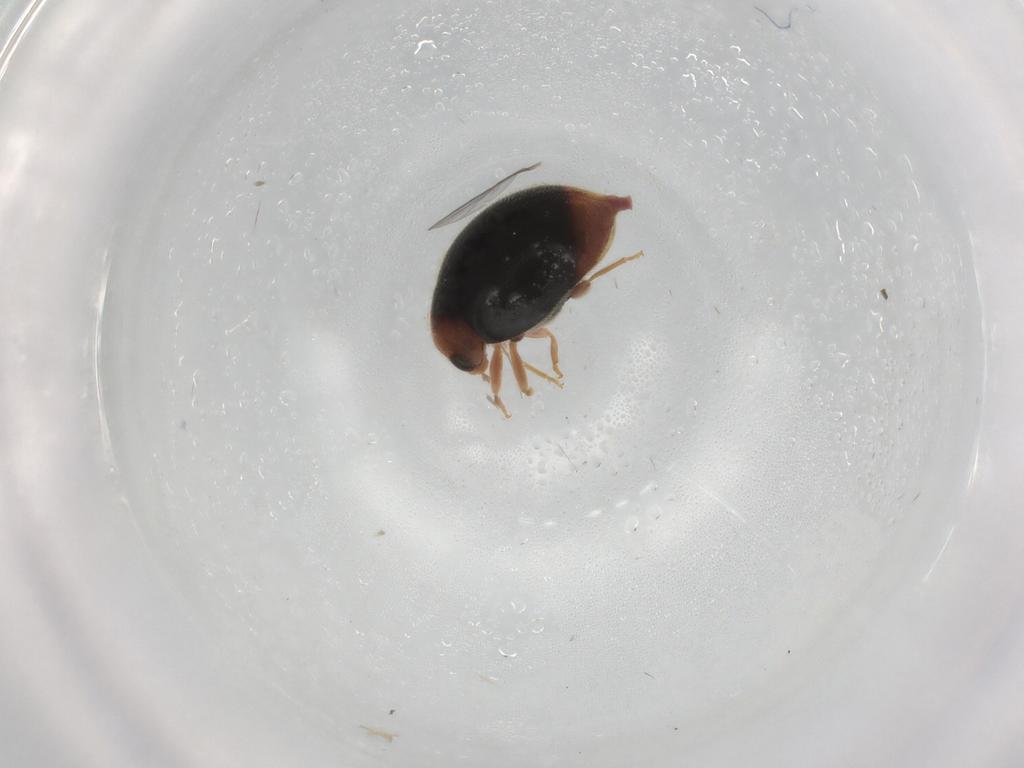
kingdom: Animalia
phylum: Arthropoda
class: Insecta
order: Coleoptera
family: Coccinellidae
